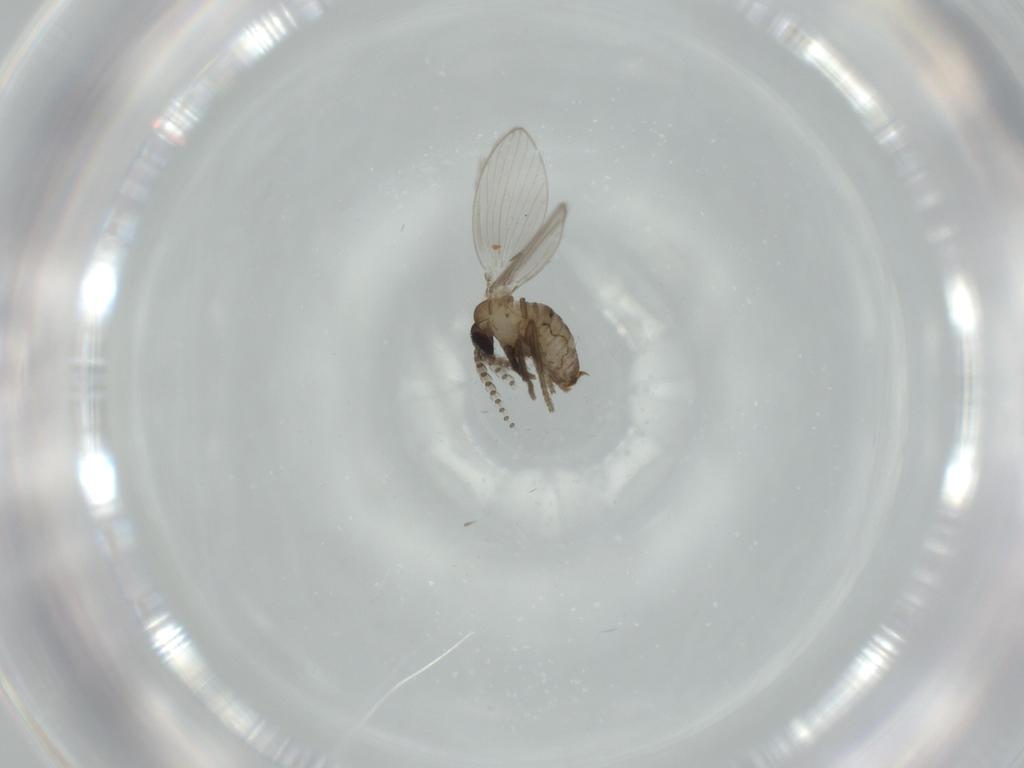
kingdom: Animalia
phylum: Arthropoda
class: Insecta
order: Diptera
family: Psychodidae
